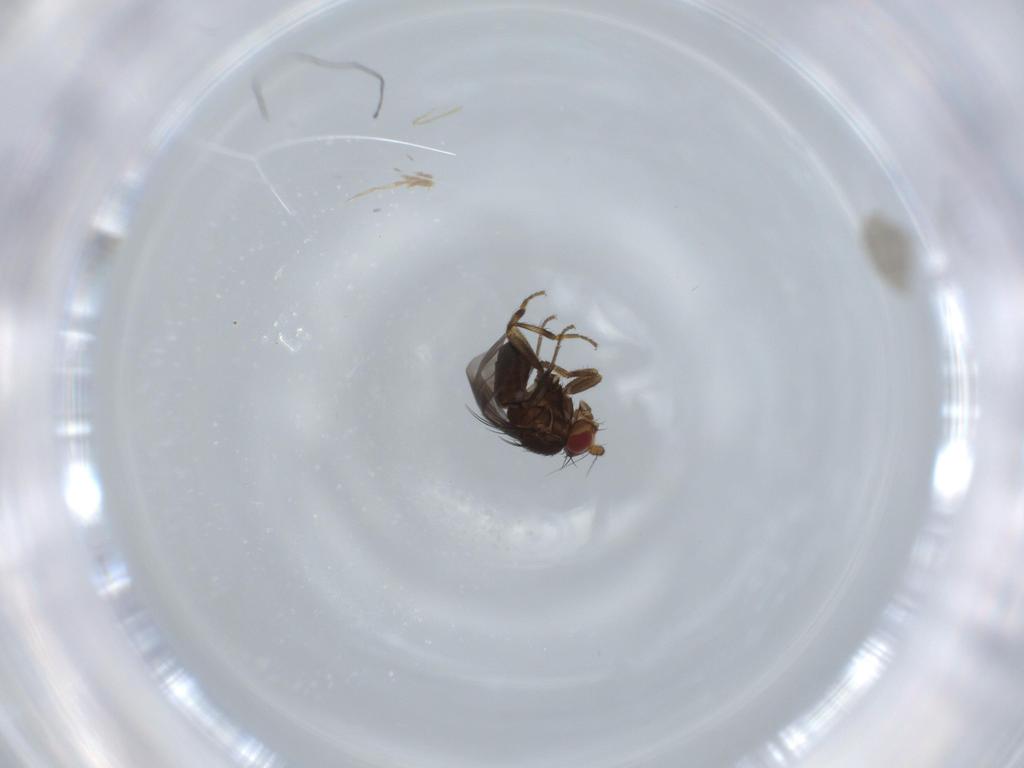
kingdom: Animalia
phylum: Arthropoda
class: Insecta
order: Diptera
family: Sphaeroceridae
